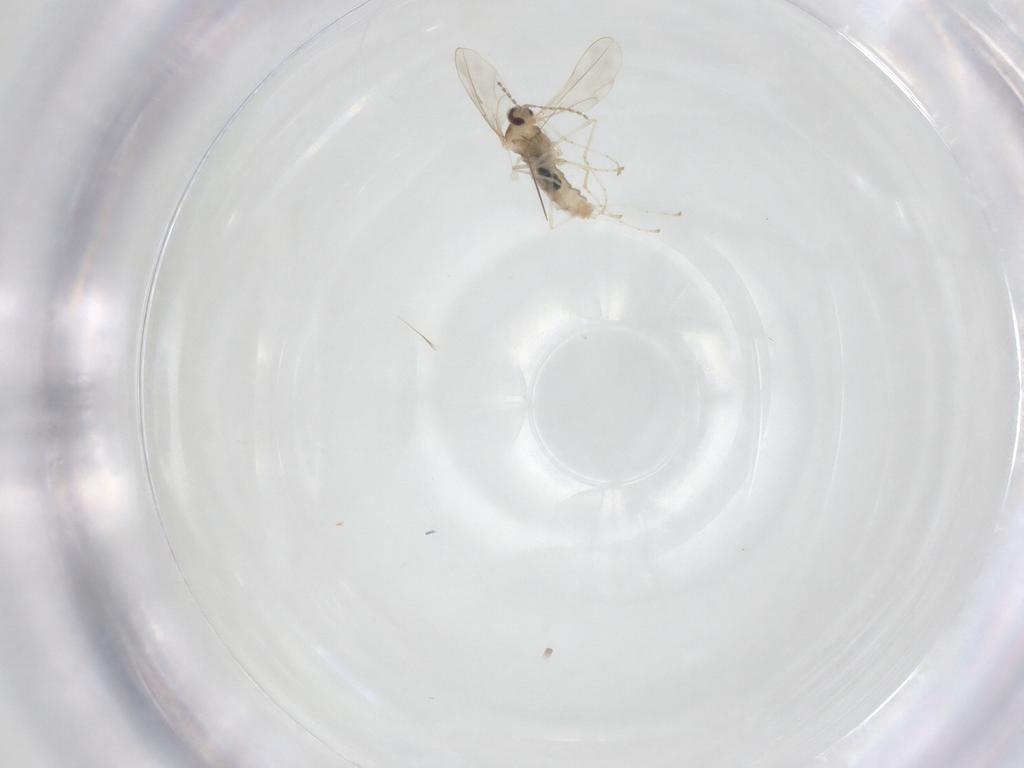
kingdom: Animalia
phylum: Arthropoda
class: Insecta
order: Diptera
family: Cecidomyiidae
